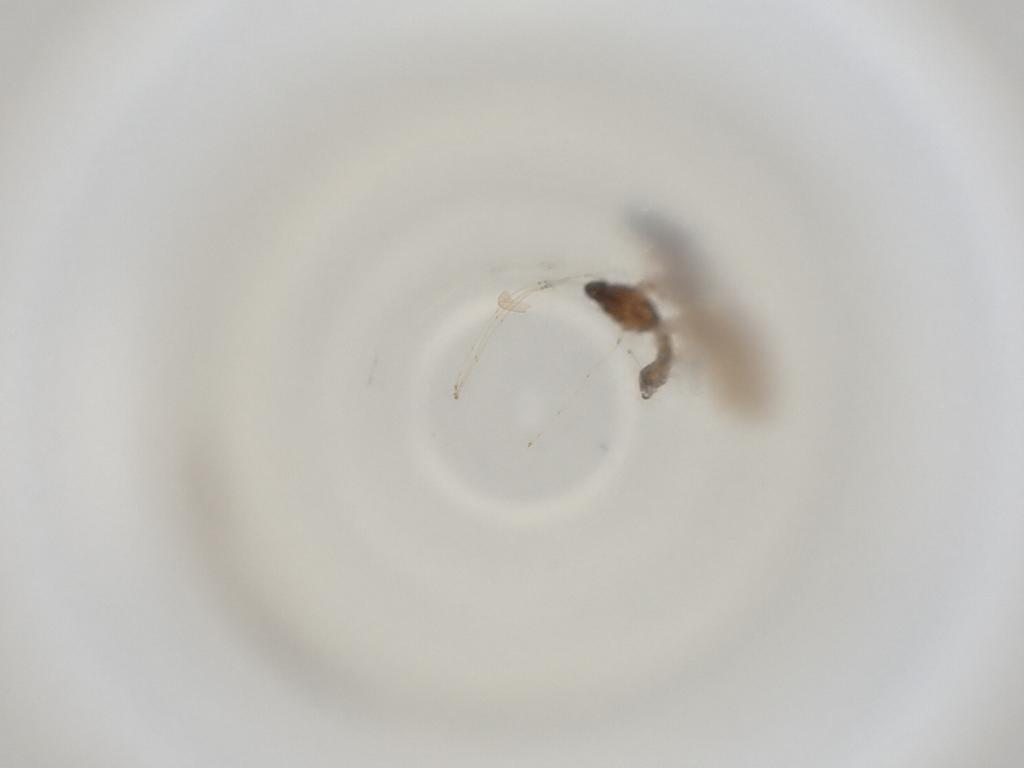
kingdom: Animalia
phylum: Arthropoda
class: Insecta
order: Diptera
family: Cecidomyiidae
